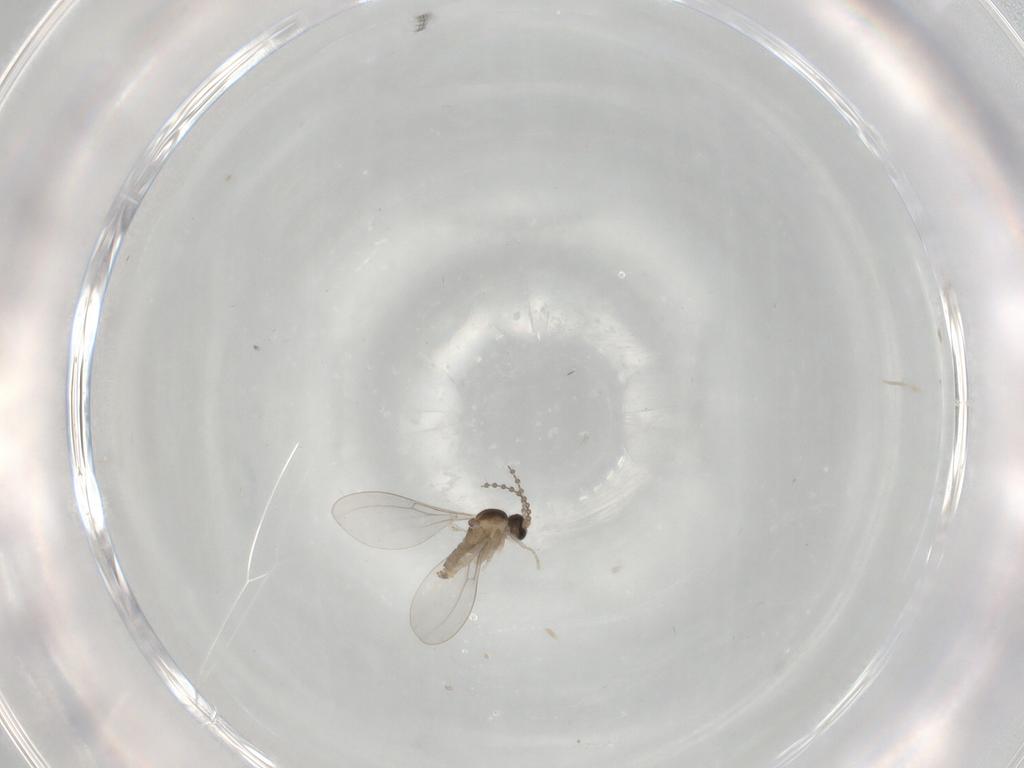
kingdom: Animalia
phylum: Arthropoda
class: Insecta
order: Diptera
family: Cecidomyiidae
